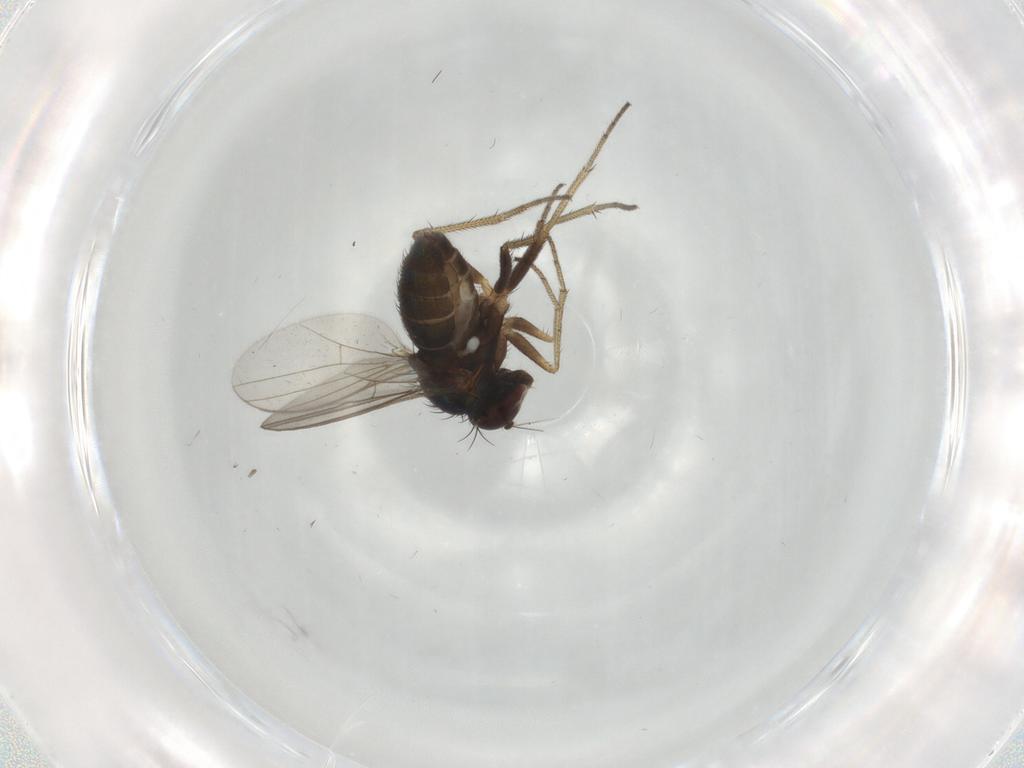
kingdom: Animalia
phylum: Arthropoda
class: Insecta
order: Diptera
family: Dolichopodidae
